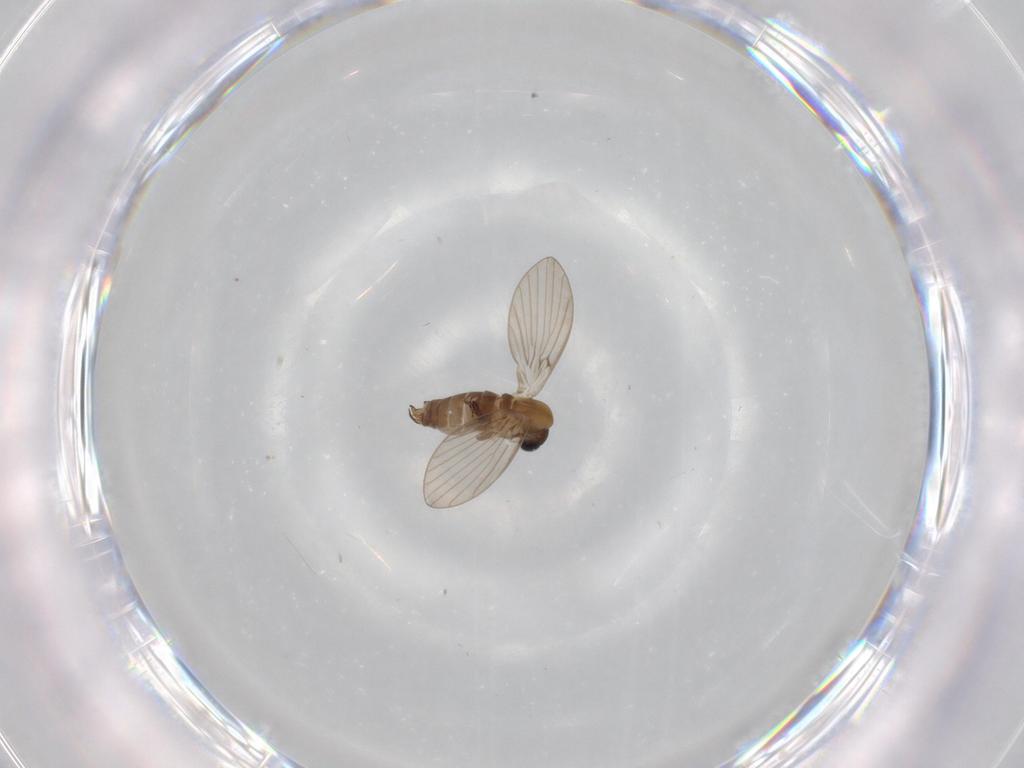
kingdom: Animalia
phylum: Arthropoda
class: Insecta
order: Diptera
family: Psychodidae
